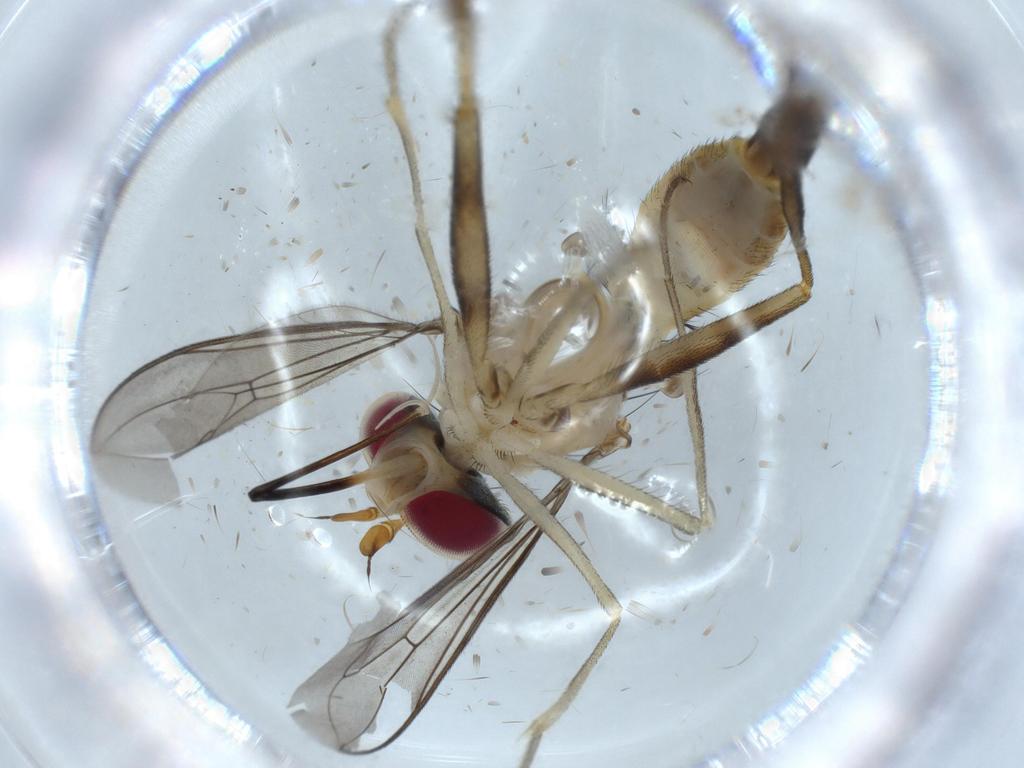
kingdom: Animalia
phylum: Arthropoda
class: Insecta
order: Diptera
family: Conopidae
